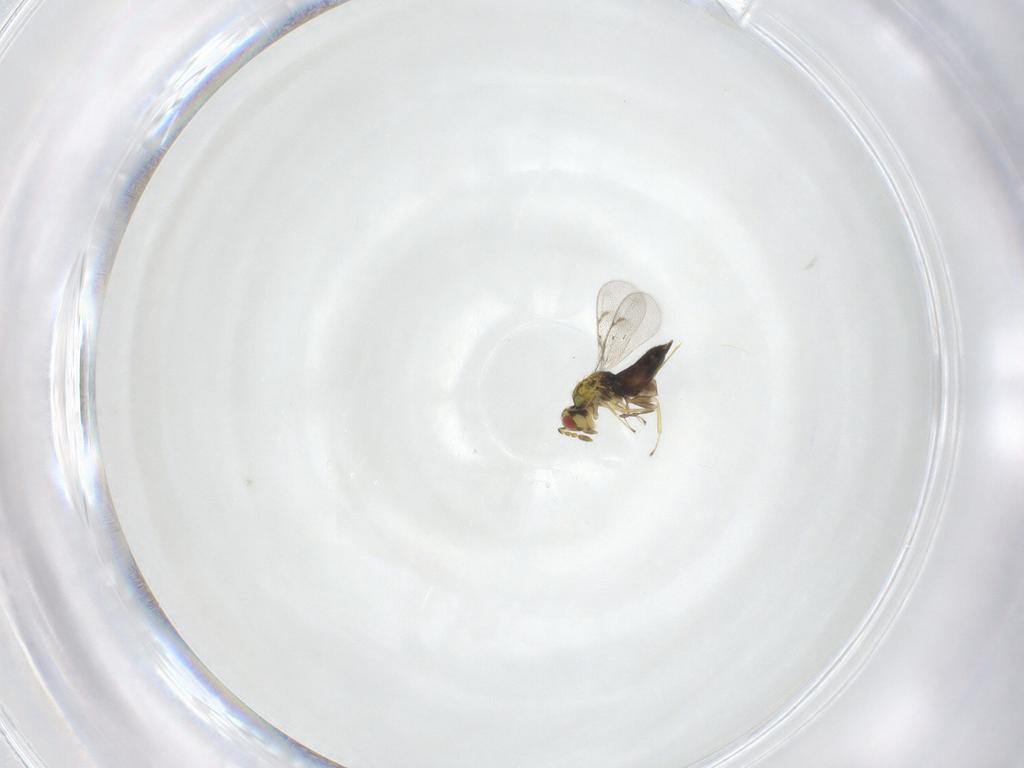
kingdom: Animalia
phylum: Arthropoda
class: Insecta
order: Hymenoptera
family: Eulophidae
